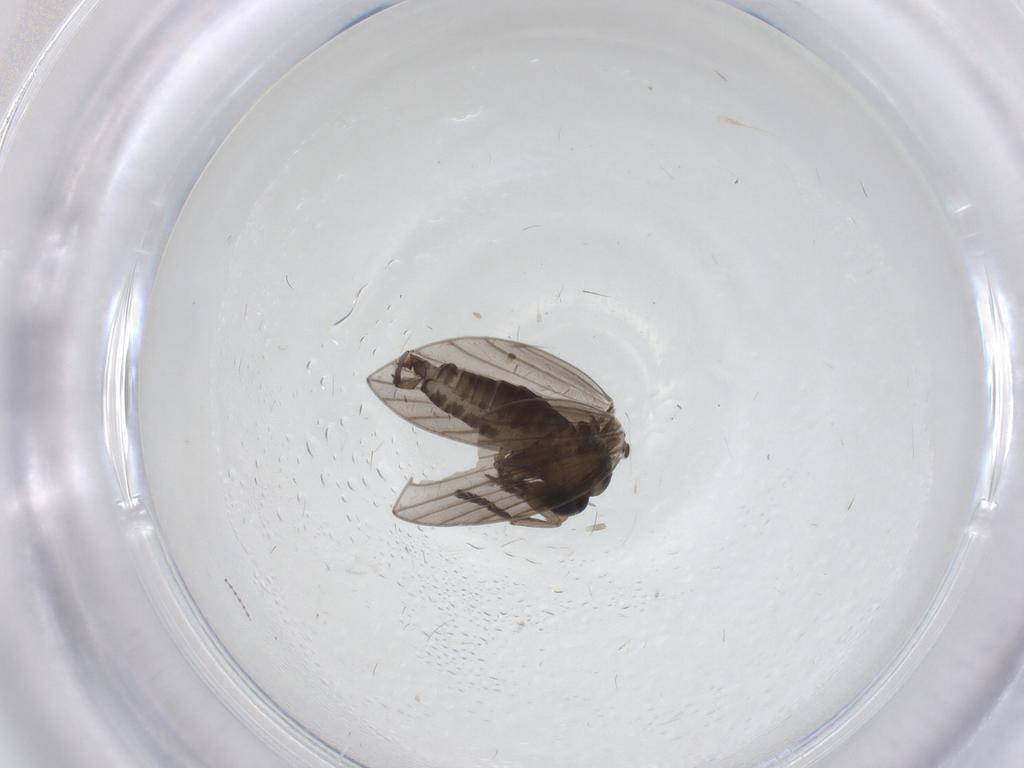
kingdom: Animalia
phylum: Arthropoda
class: Insecta
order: Diptera
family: Psychodidae
